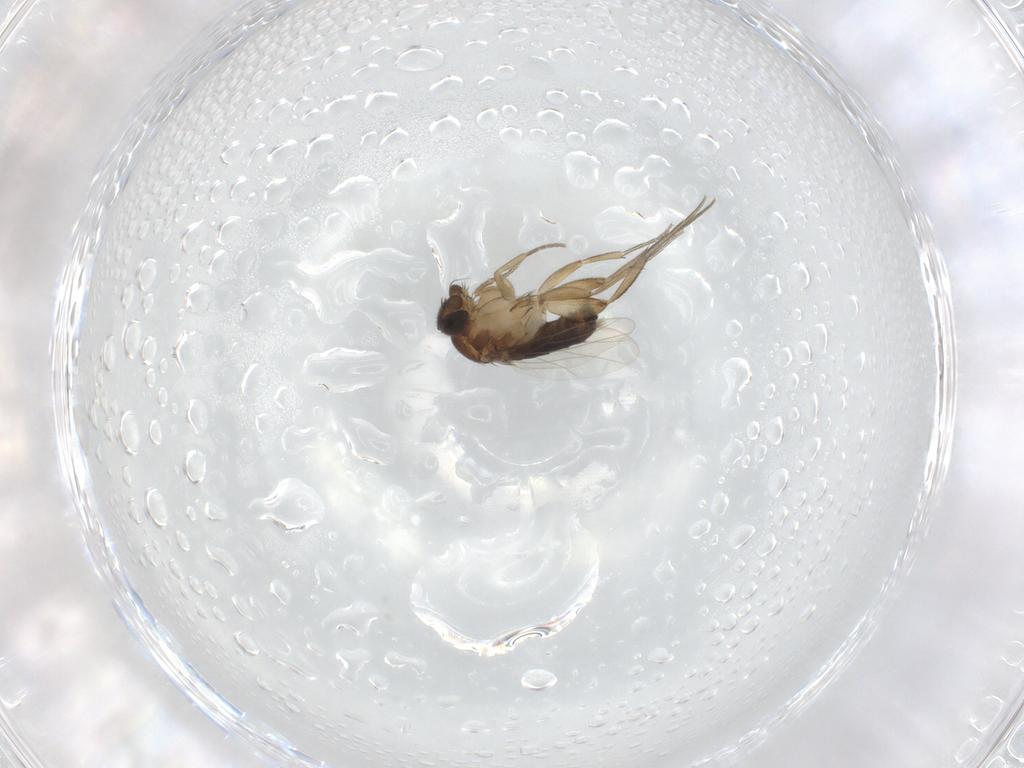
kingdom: Animalia
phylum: Arthropoda
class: Insecta
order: Diptera
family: Phoridae
